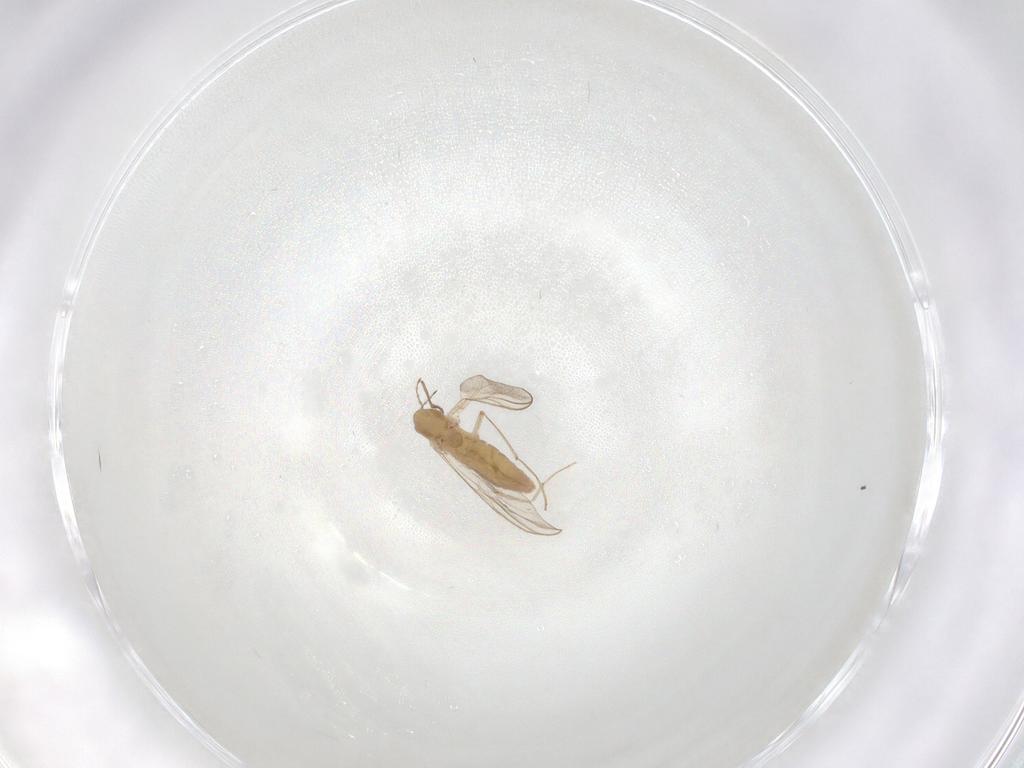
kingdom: Animalia
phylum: Arthropoda
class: Insecta
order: Diptera
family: Chironomidae
